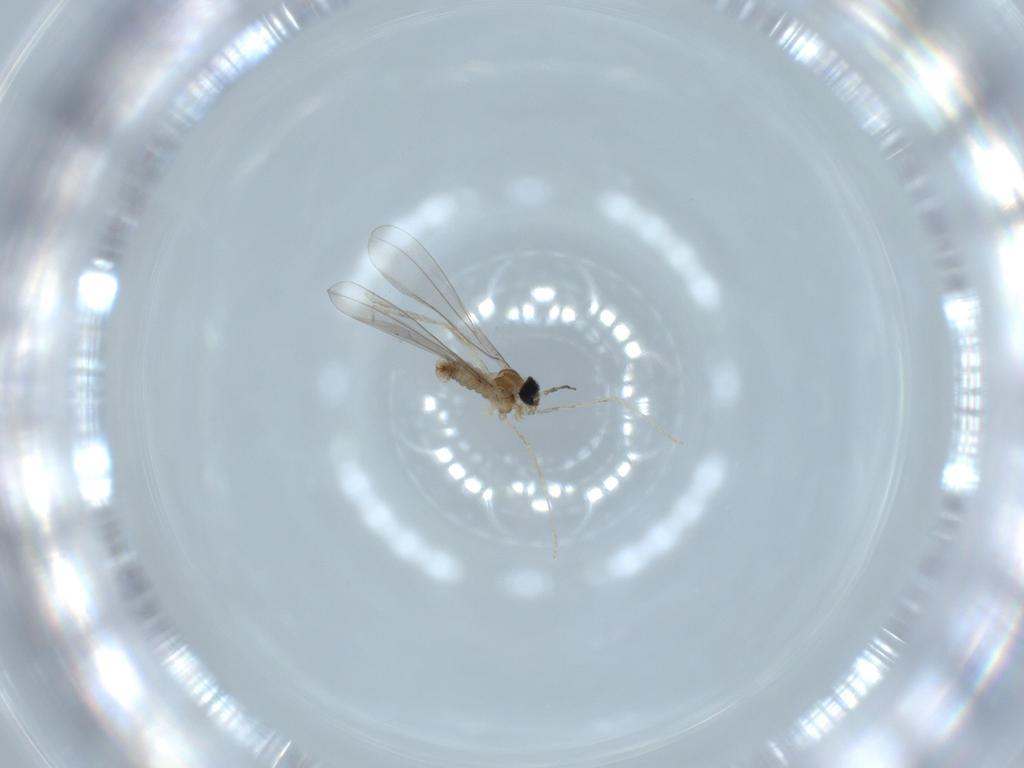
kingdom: Animalia
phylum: Arthropoda
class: Insecta
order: Diptera
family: Cecidomyiidae
